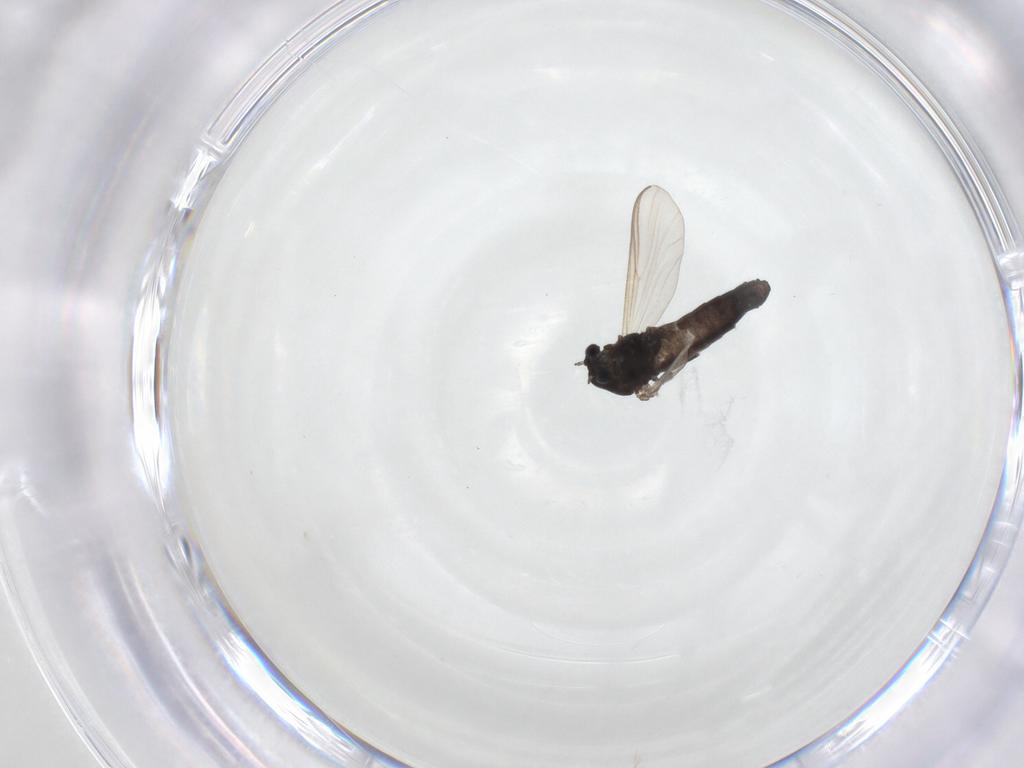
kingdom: Animalia
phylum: Arthropoda
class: Insecta
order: Diptera
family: Chironomidae
